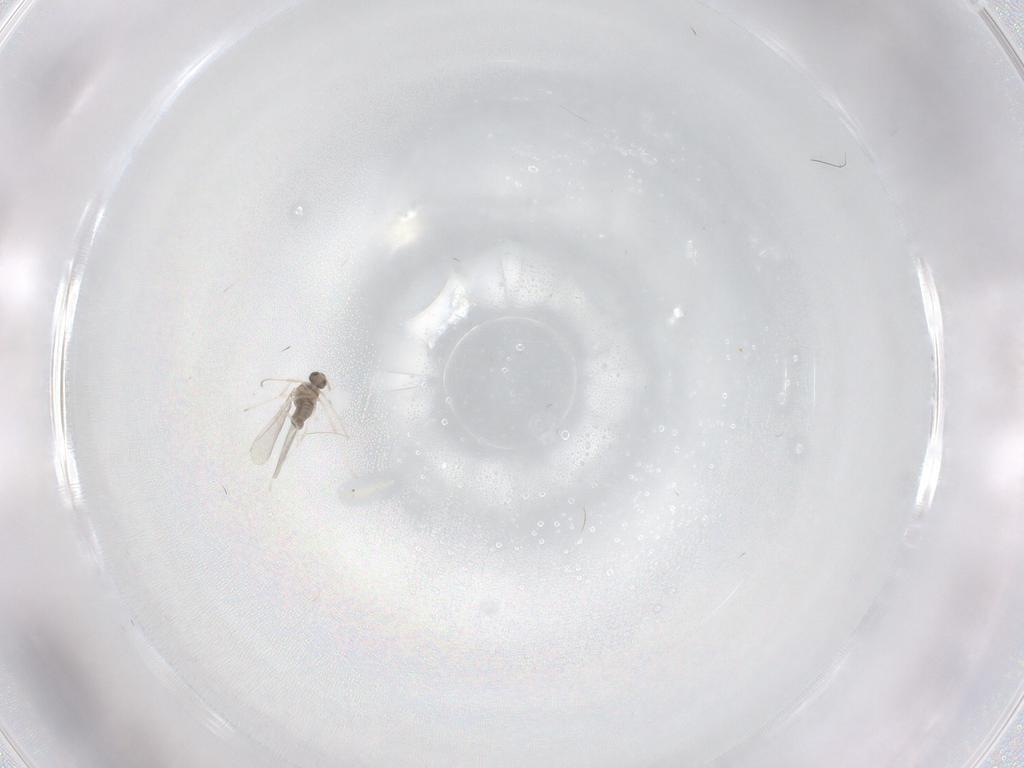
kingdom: Animalia
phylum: Arthropoda
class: Insecta
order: Diptera
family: Cecidomyiidae
